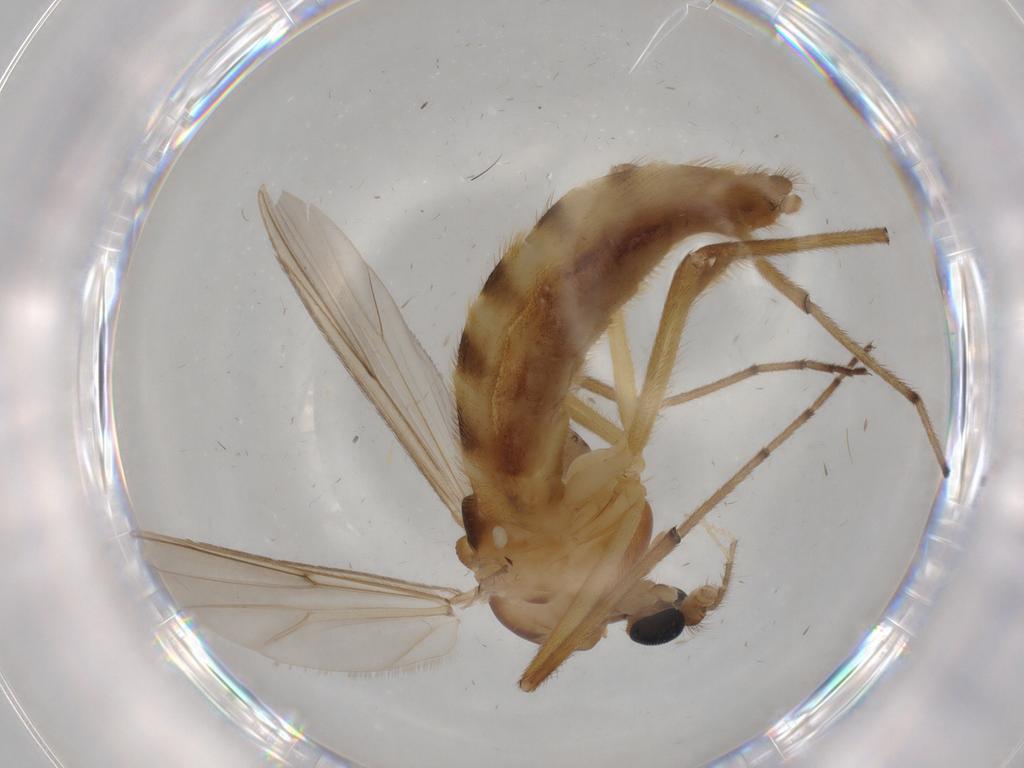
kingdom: Animalia
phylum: Arthropoda
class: Insecta
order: Diptera
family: Ceratopogonidae
